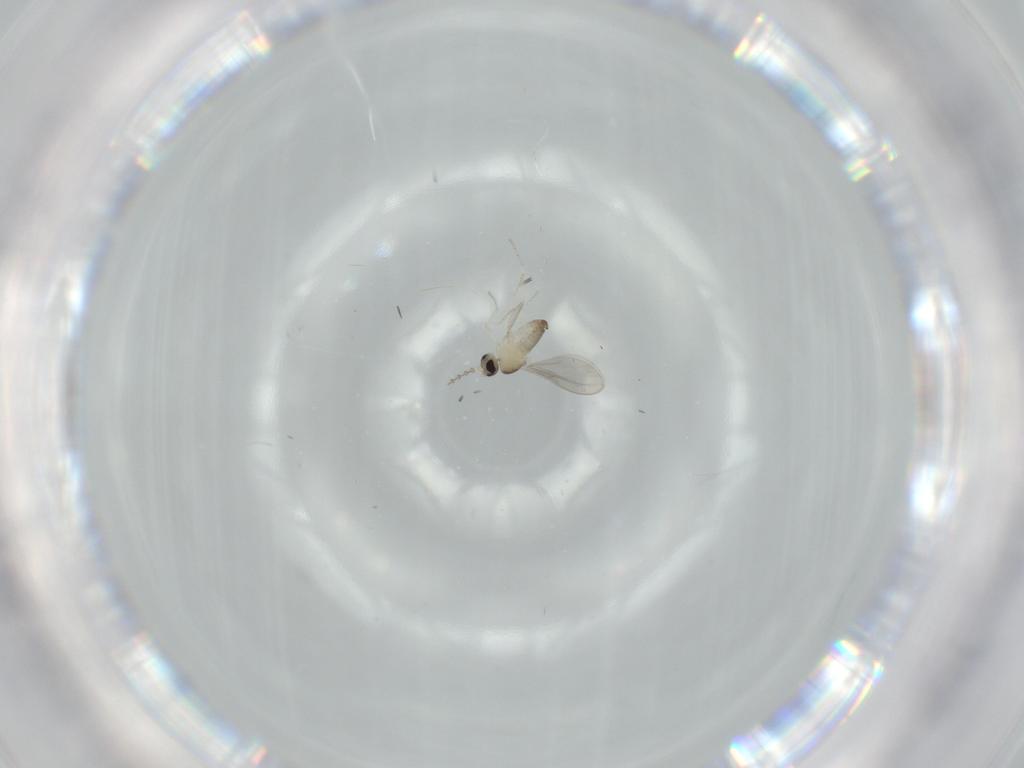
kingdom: Animalia
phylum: Arthropoda
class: Insecta
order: Diptera
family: Cecidomyiidae
